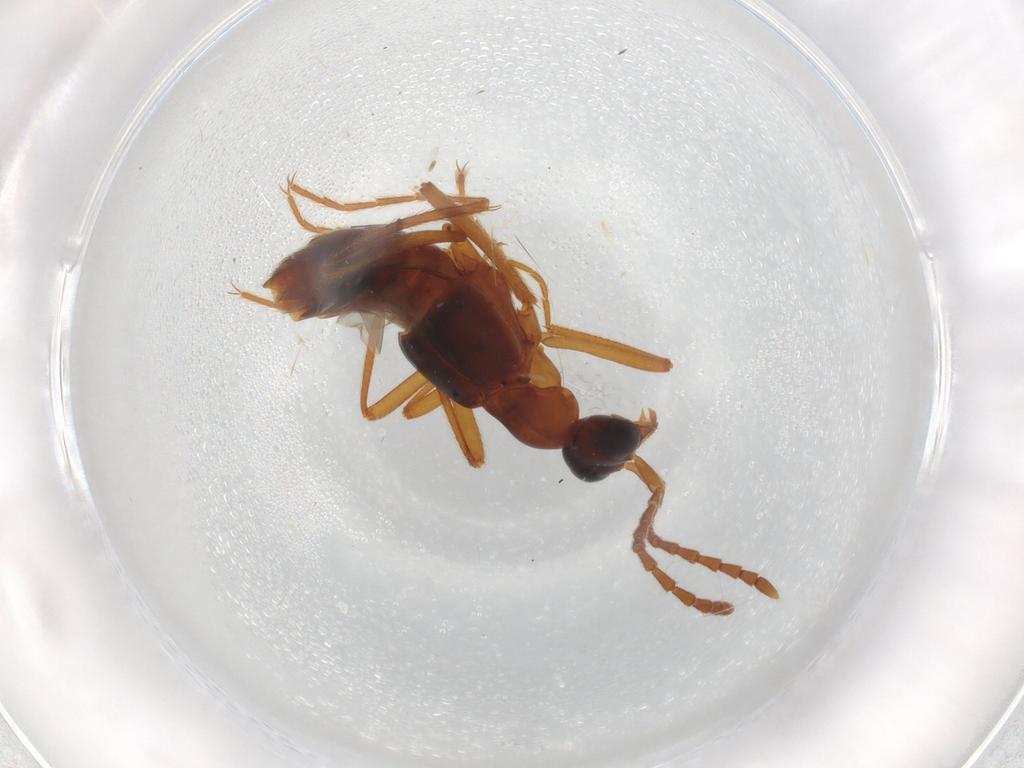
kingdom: Animalia
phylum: Arthropoda
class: Insecta
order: Coleoptera
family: Staphylinidae
